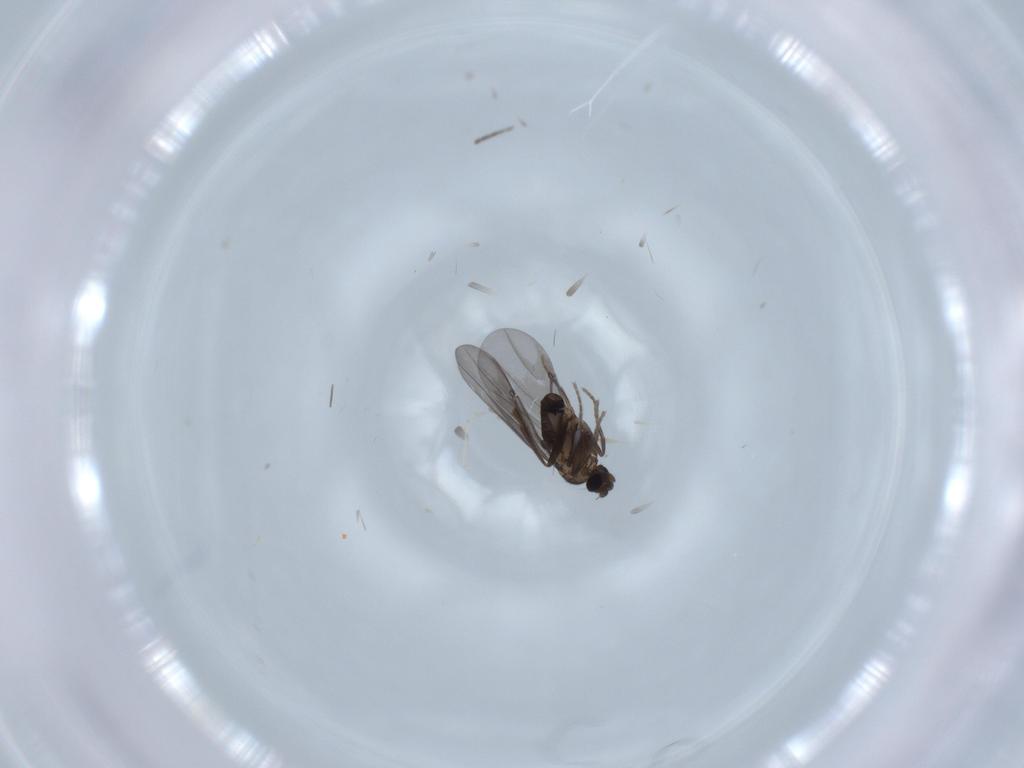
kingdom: Animalia
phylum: Arthropoda
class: Insecta
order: Diptera
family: Phoridae
